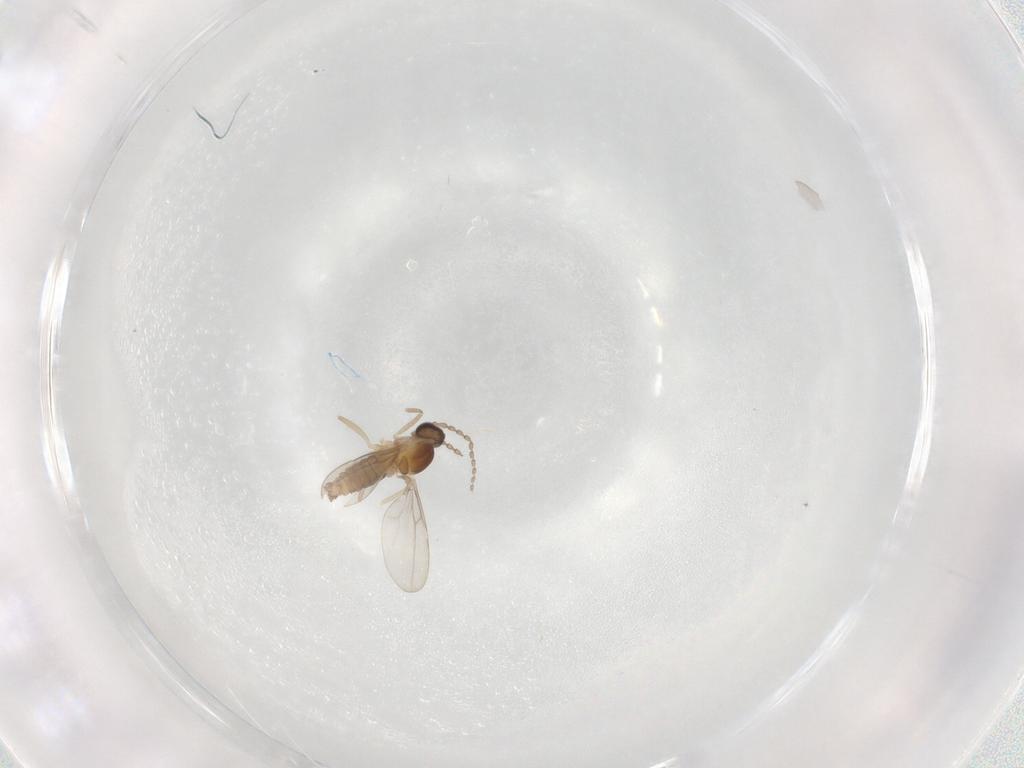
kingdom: Animalia
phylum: Arthropoda
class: Insecta
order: Diptera
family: Cecidomyiidae
